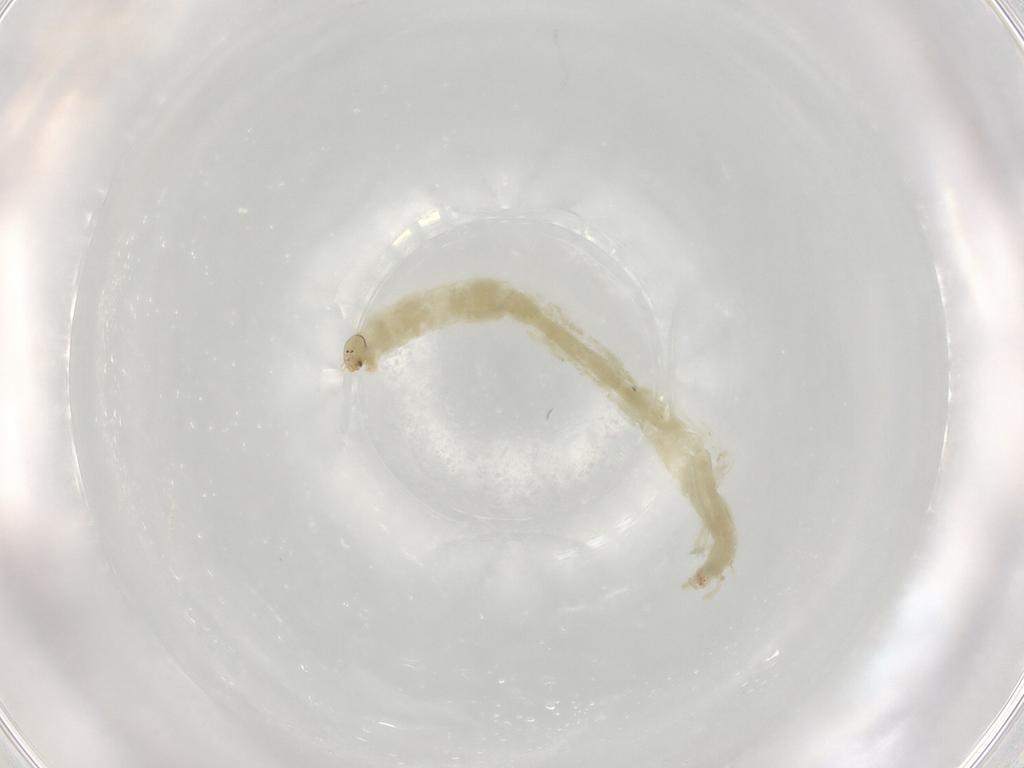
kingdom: Animalia
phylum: Arthropoda
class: Insecta
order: Diptera
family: Chironomidae
